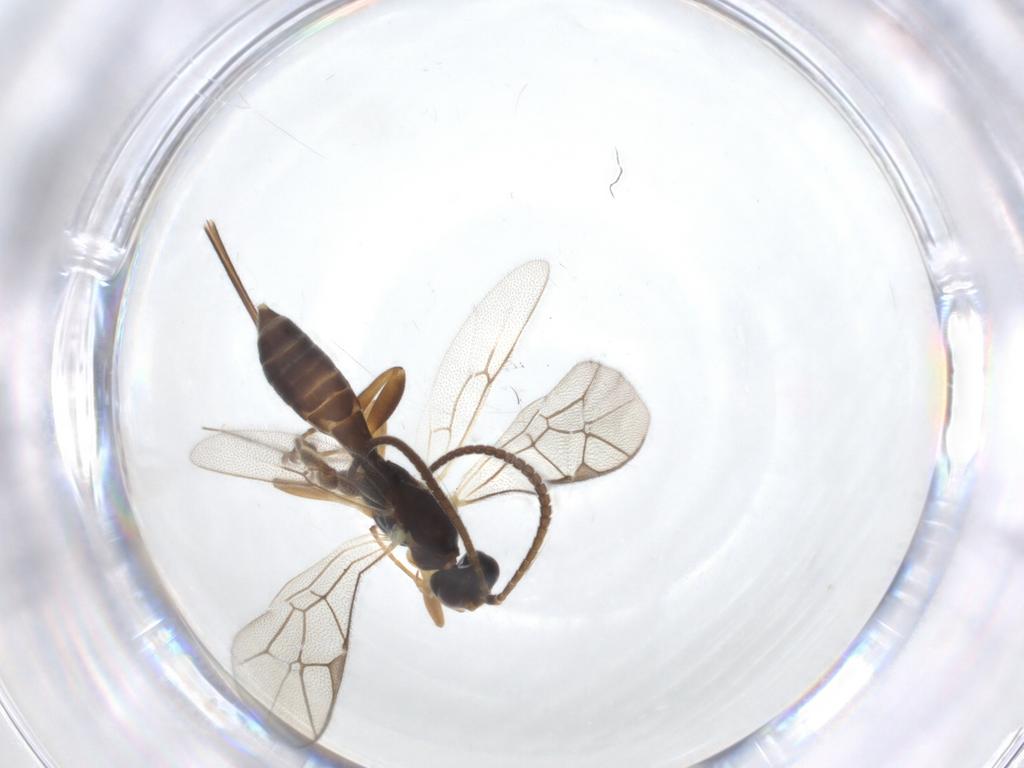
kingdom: Animalia
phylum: Arthropoda
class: Insecta
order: Hymenoptera
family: Ichneumonidae
